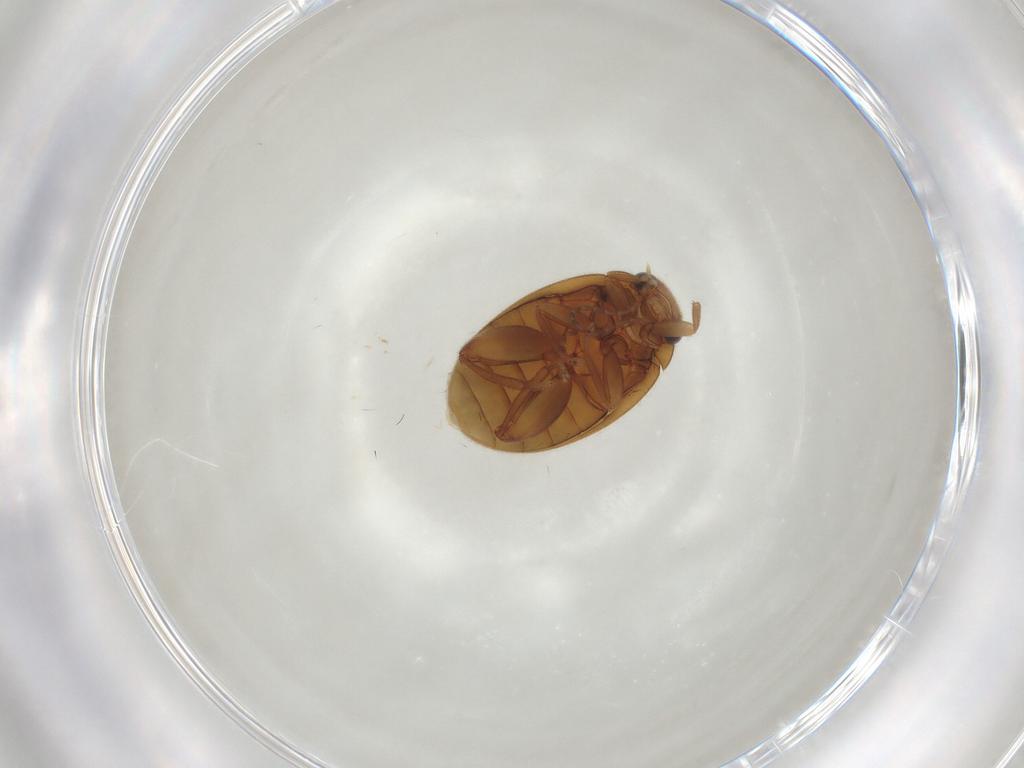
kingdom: Animalia
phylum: Arthropoda
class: Insecta
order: Coleoptera
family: Scirtidae
